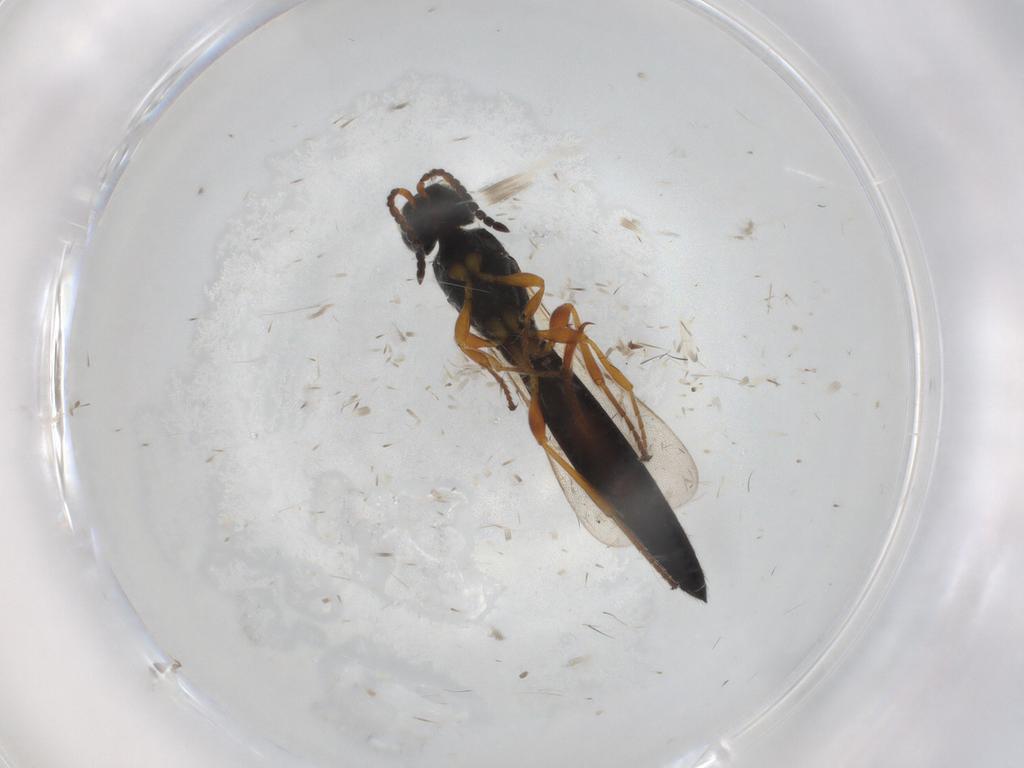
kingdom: Animalia
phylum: Arthropoda
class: Insecta
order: Hymenoptera
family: Scelionidae
